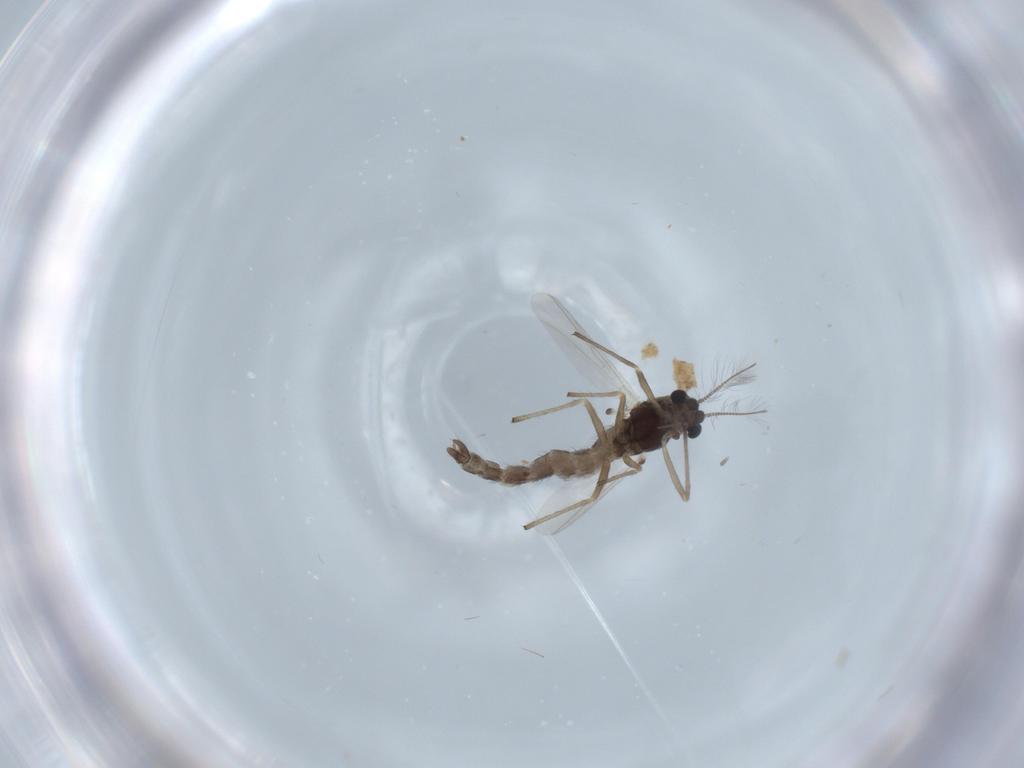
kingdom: Animalia
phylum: Arthropoda
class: Insecta
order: Diptera
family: Chironomidae
